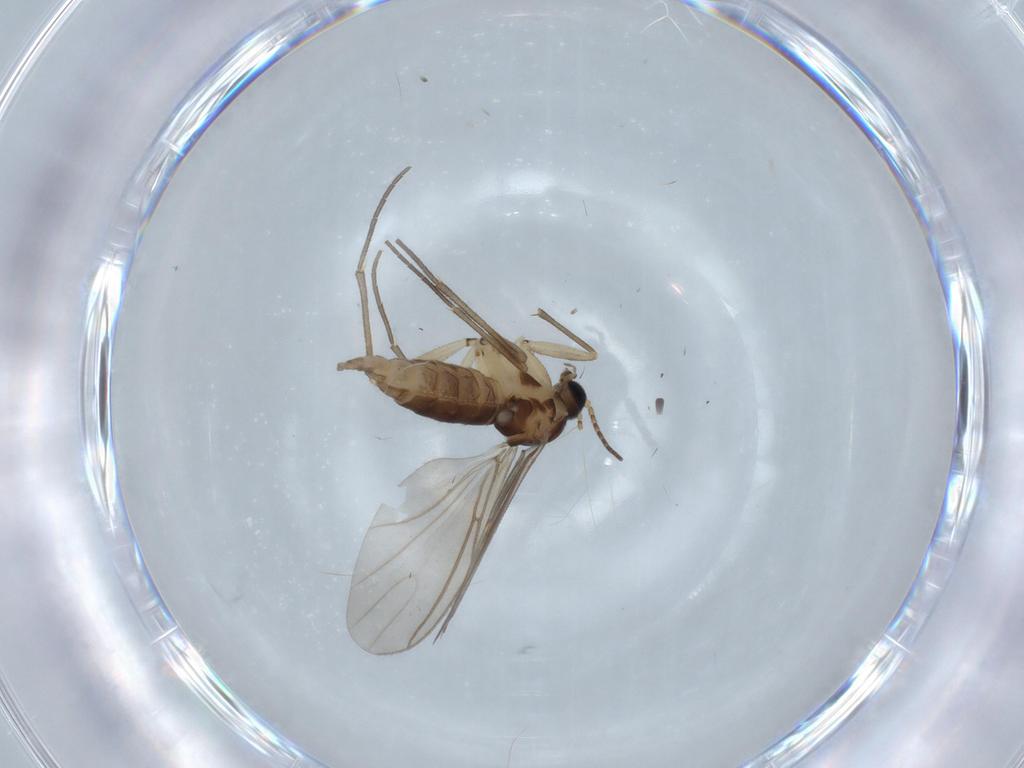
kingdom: Animalia
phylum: Arthropoda
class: Insecta
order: Diptera
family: Sciaridae
